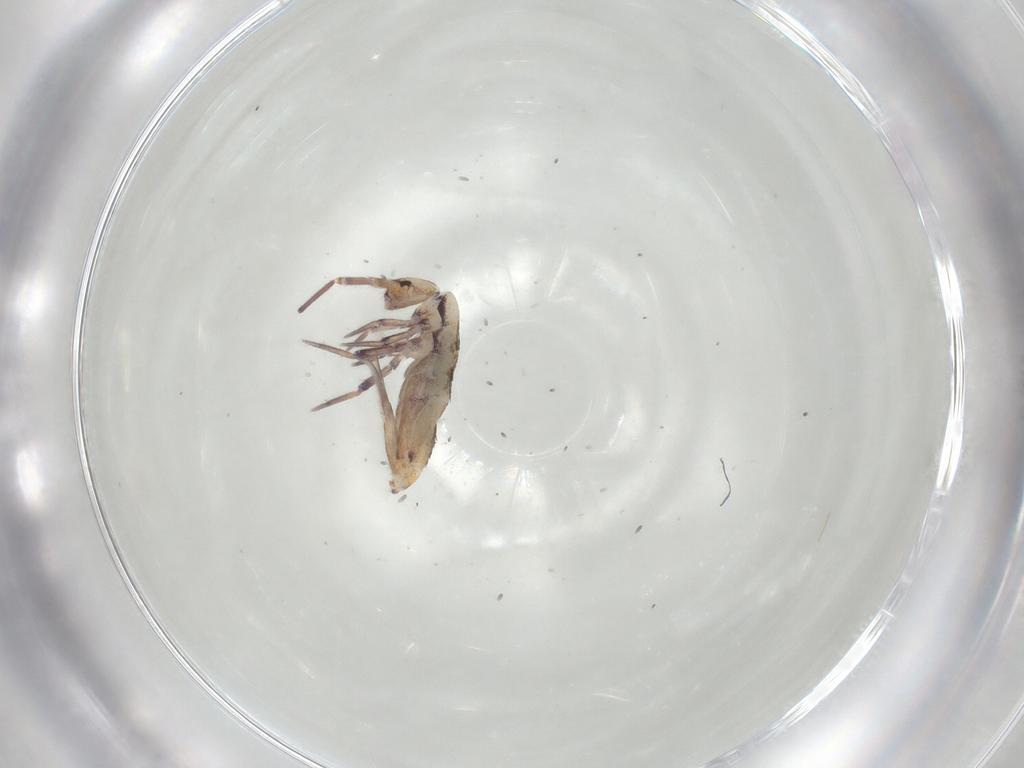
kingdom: Animalia
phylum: Arthropoda
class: Collembola
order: Entomobryomorpha
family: Entomobryidae
